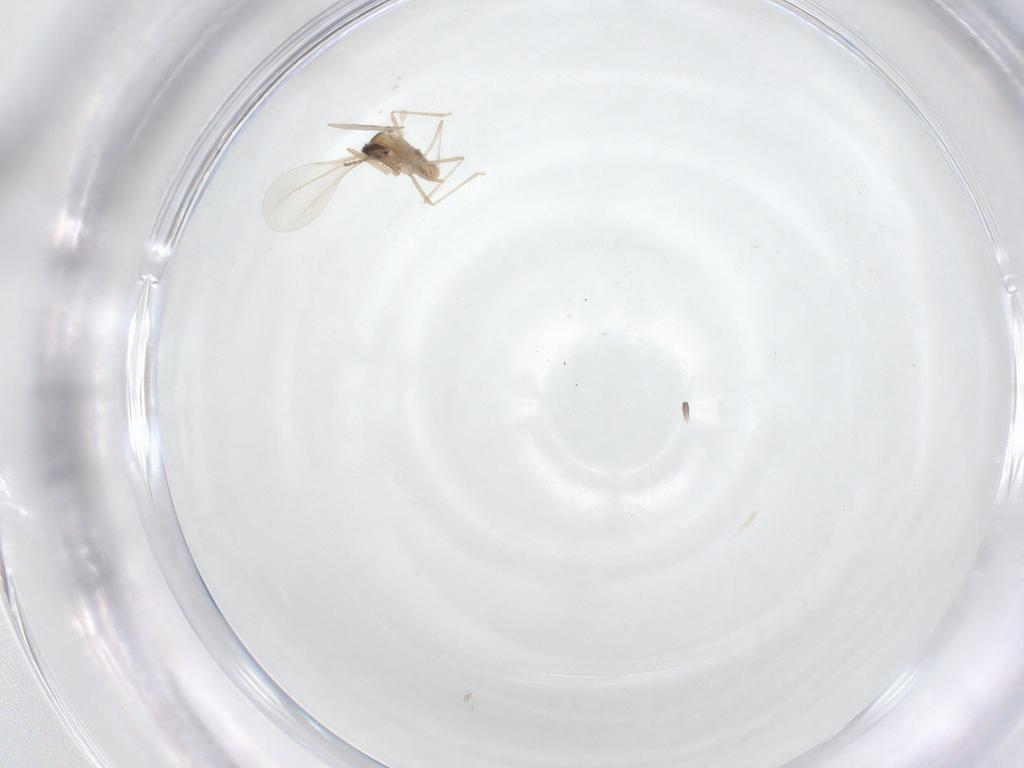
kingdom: Animalia
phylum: Arthropoda
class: Insecta
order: Diptera
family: Cecidomyiidae
